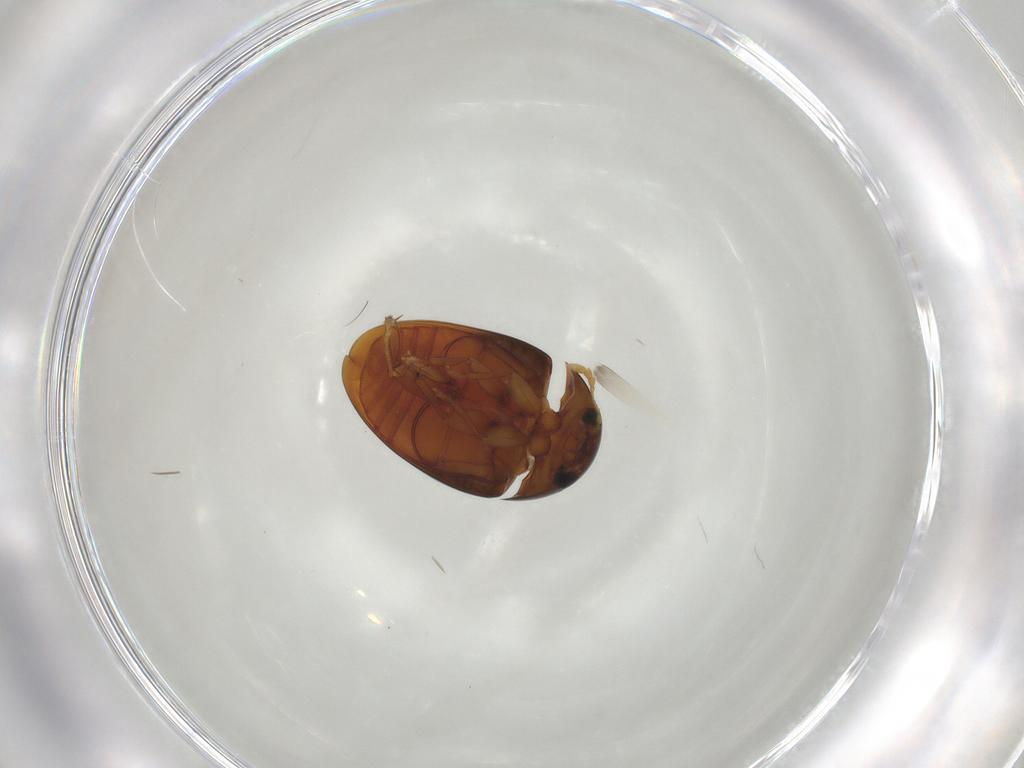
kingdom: Animalia
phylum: Arthropoda
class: Insecta
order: Coleoptera
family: Phalacridae
